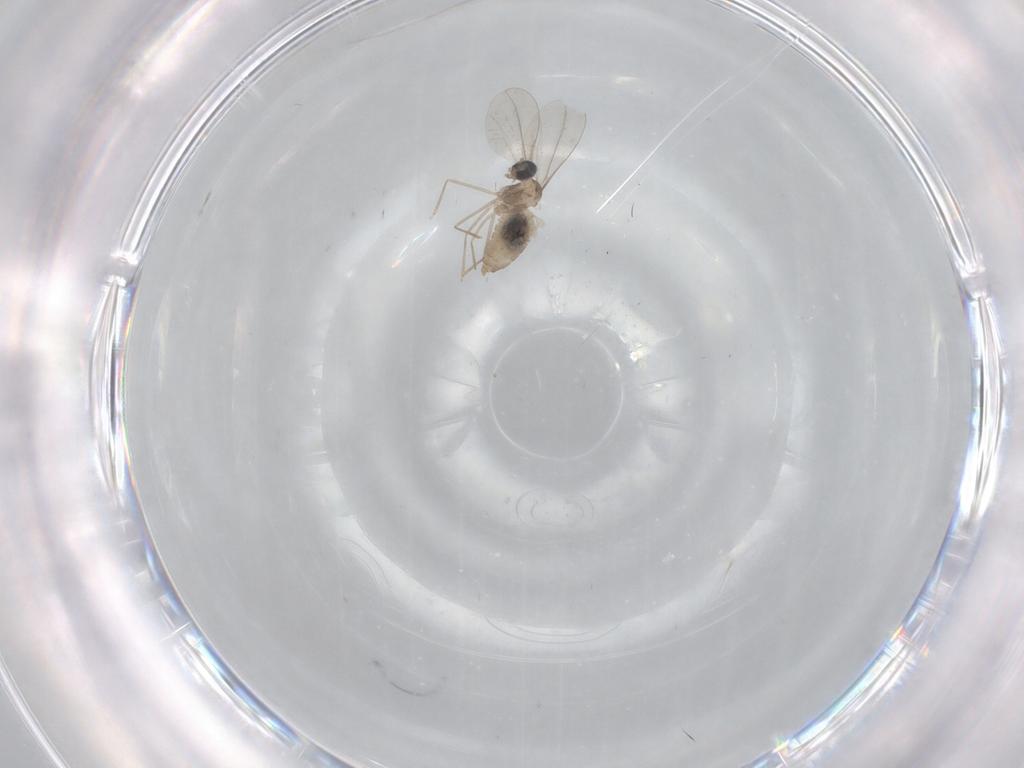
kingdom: Animalia
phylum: Arthropoda
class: Insecta
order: Diptera
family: Cecidomyiidae
